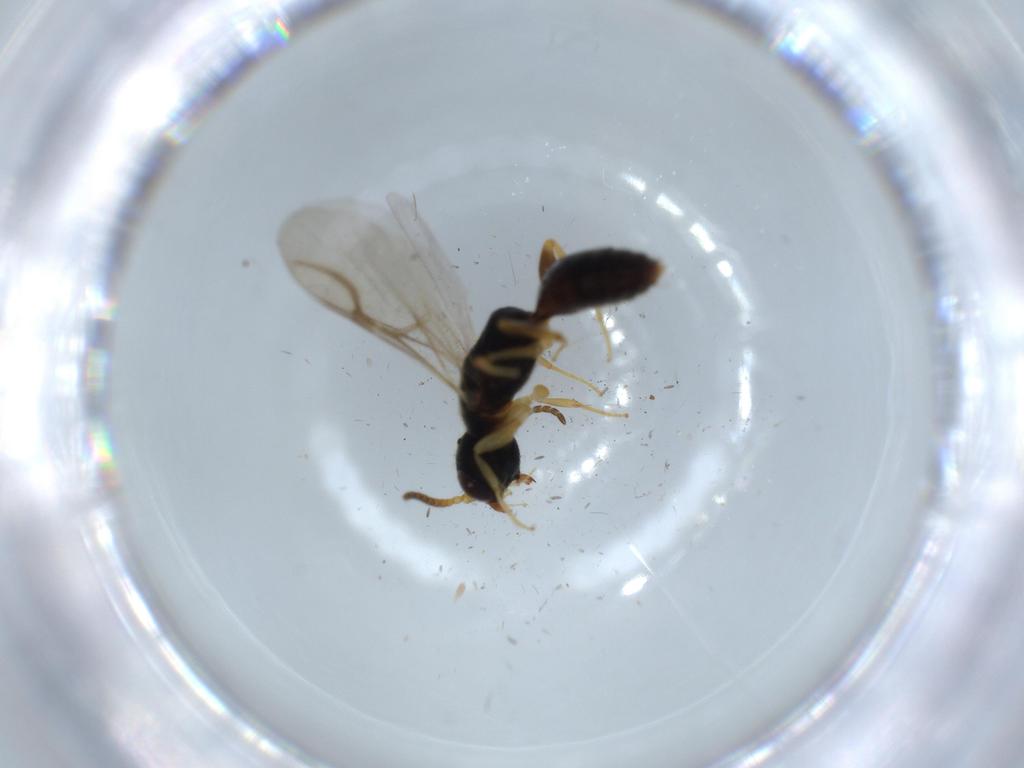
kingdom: Animalia
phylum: Arthropoda
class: Insecta
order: Hymenoptera
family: Bethylidae
